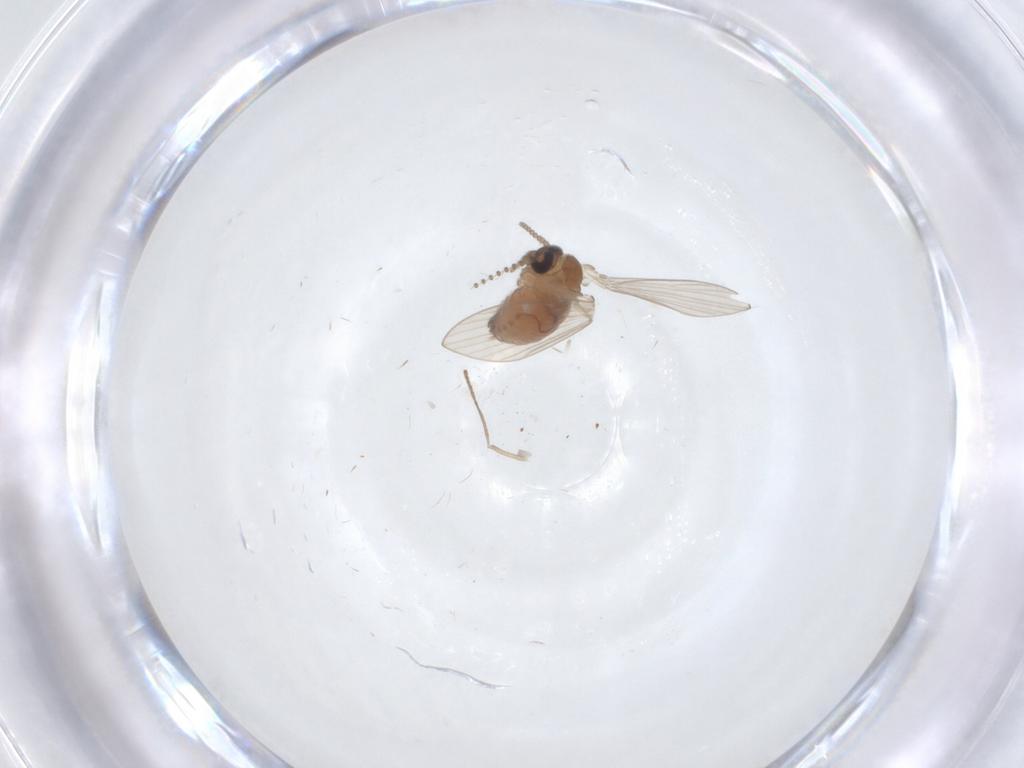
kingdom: Animalia
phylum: Arthropoda
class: Insecta
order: Diptera
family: Psychodidae
